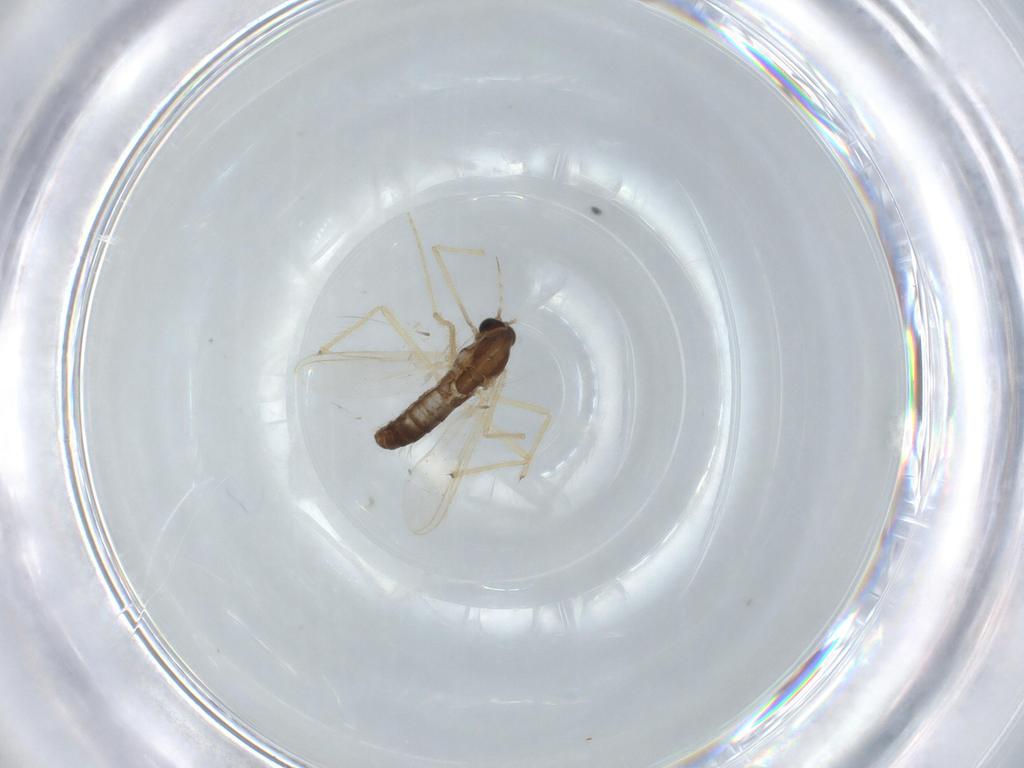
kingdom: Animalia
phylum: Arthropoda
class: Insecta
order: Diptera
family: Chironomidae
